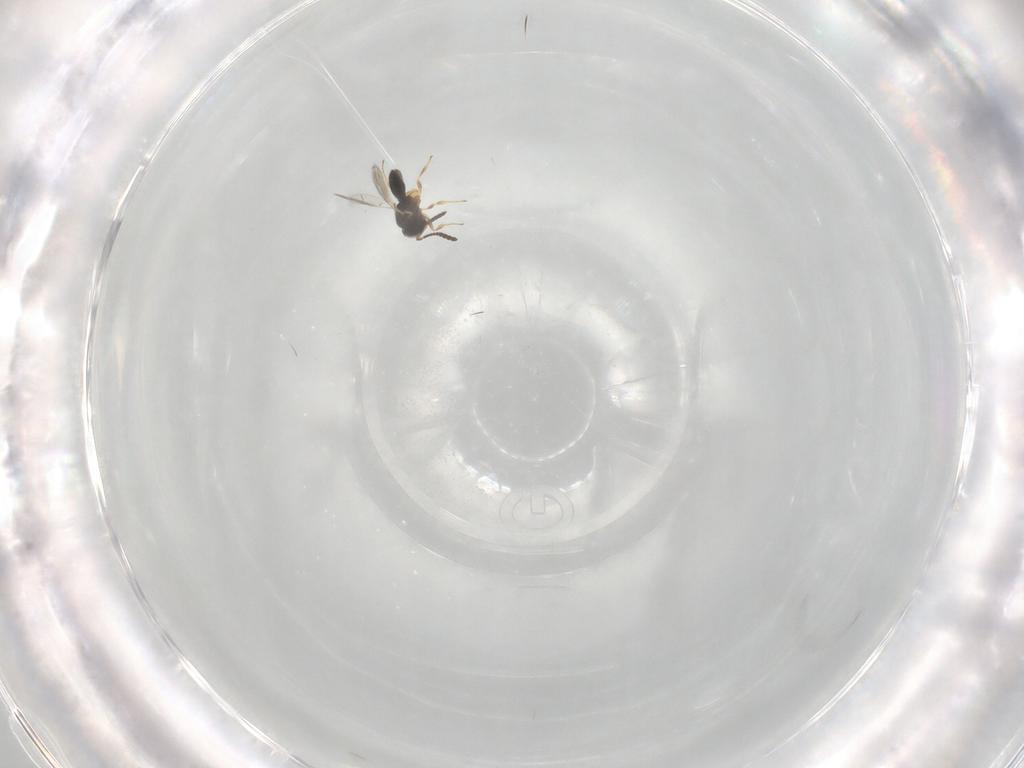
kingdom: Animalia
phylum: Arthropoda
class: Insecta
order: Hymenoptera
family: Scelionidae
